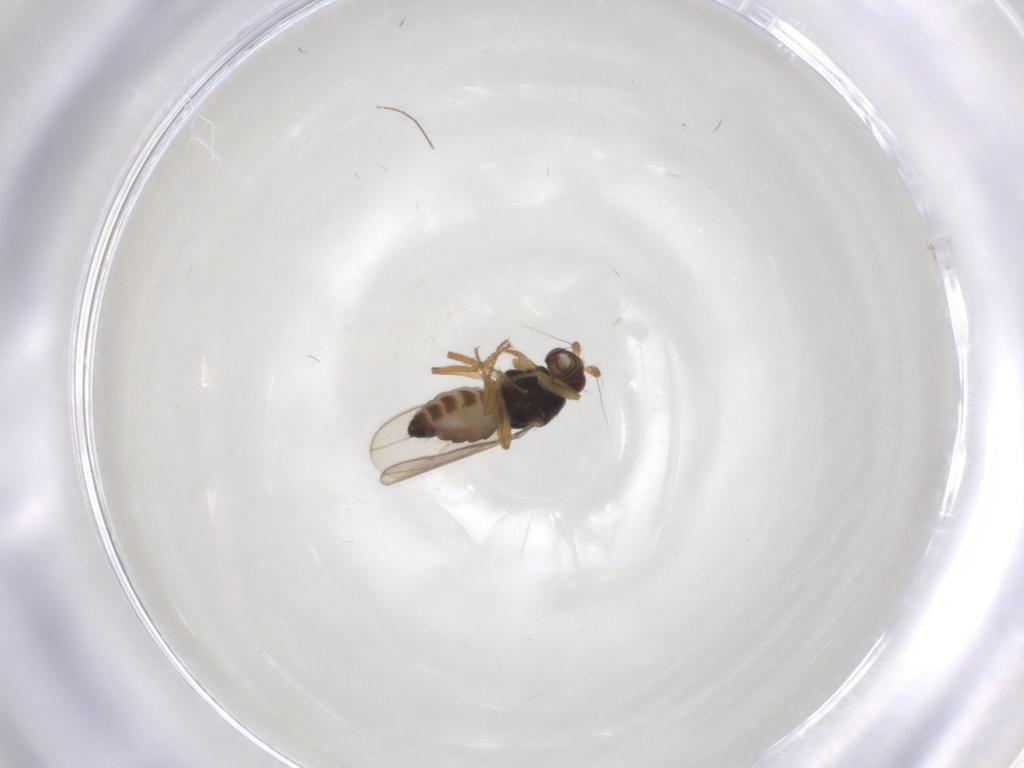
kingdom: Animalia
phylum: Arthropoda
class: Insecta
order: Diptera
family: Sphaeroceridae
